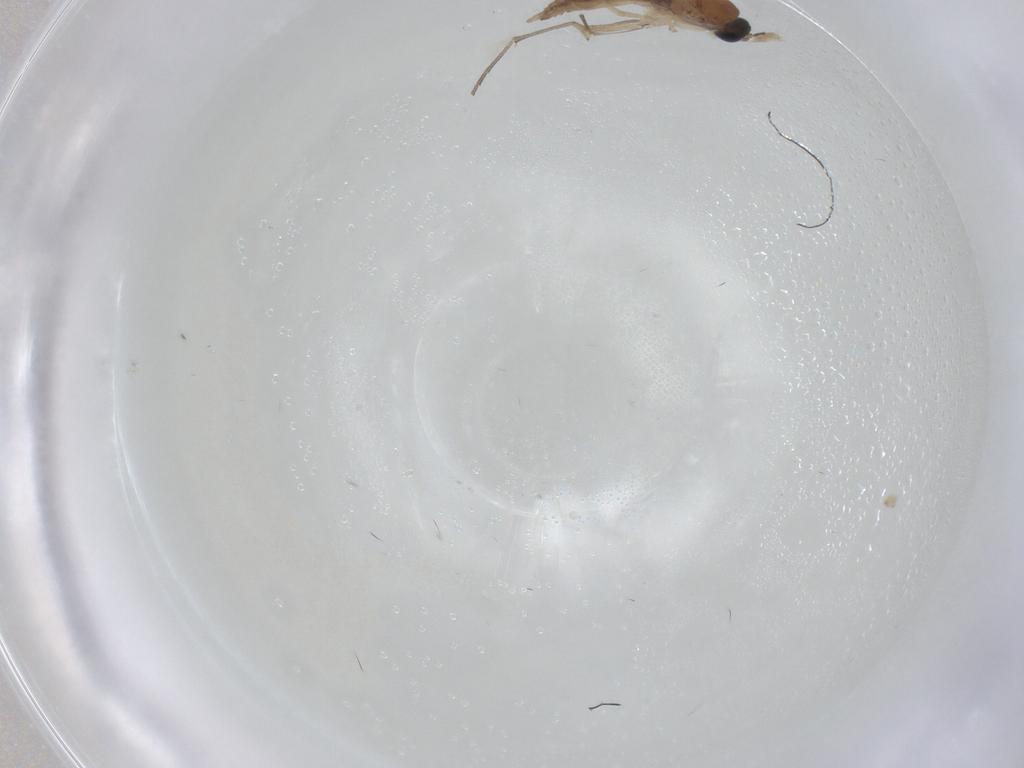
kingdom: Animalia
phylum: Arthropoda
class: Insecta
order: Diptera
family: Sciaridae
